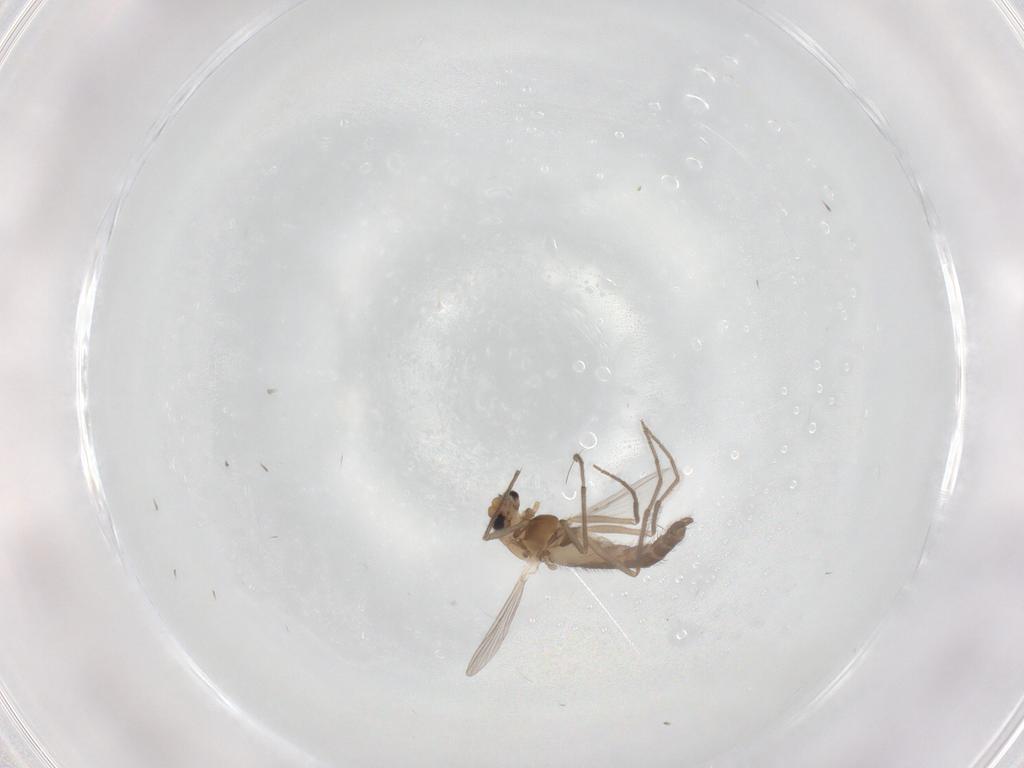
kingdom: Animalia
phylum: Arthropoda
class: Insecta
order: Diptera
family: Chironomidae
